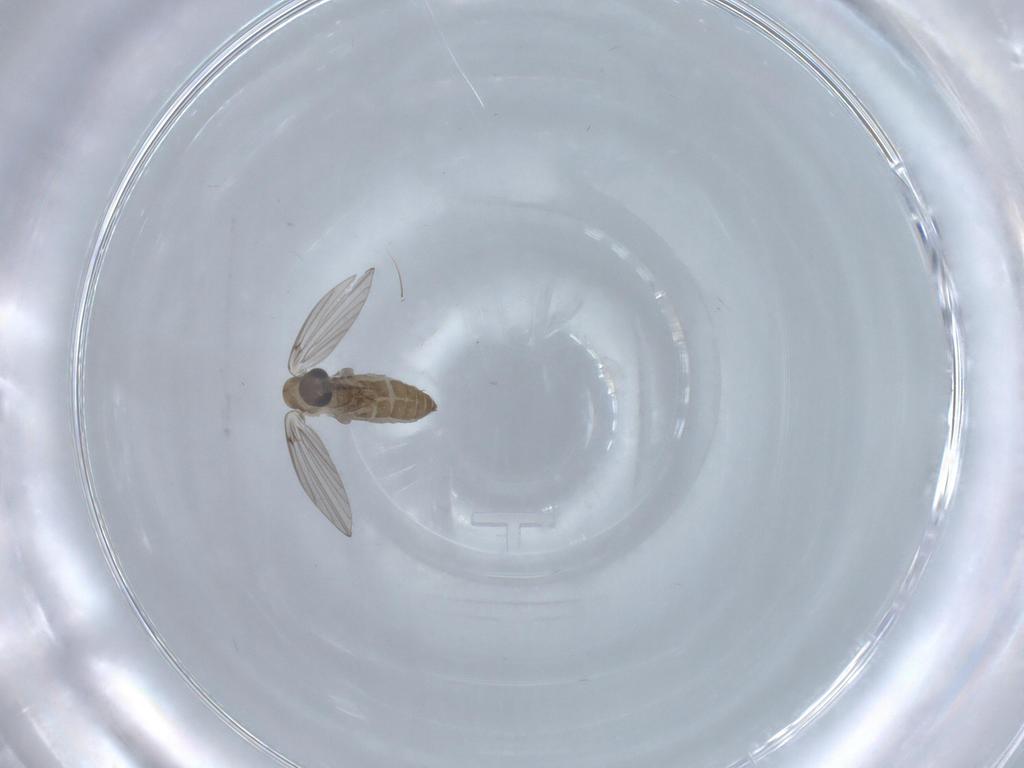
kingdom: Animalia
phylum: Arthropoda
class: Insecta
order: Diptera
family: Psychodidae
